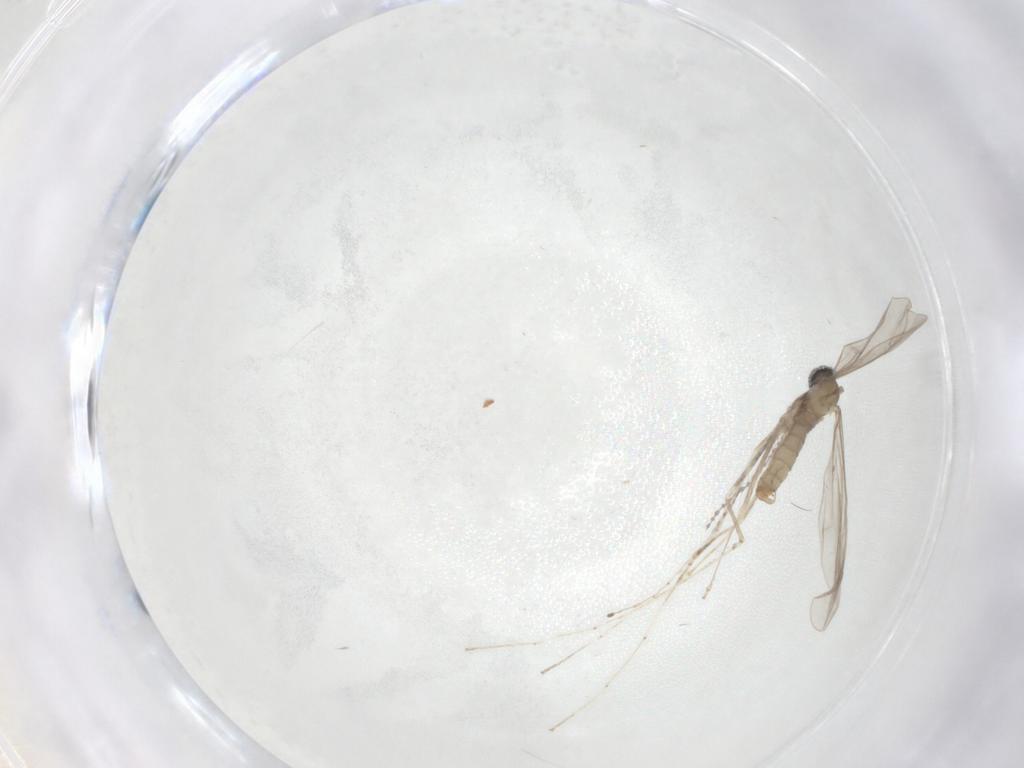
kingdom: Animalia
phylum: Arthropoda
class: Insecta
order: Diptera
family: Cecidomyiidae
